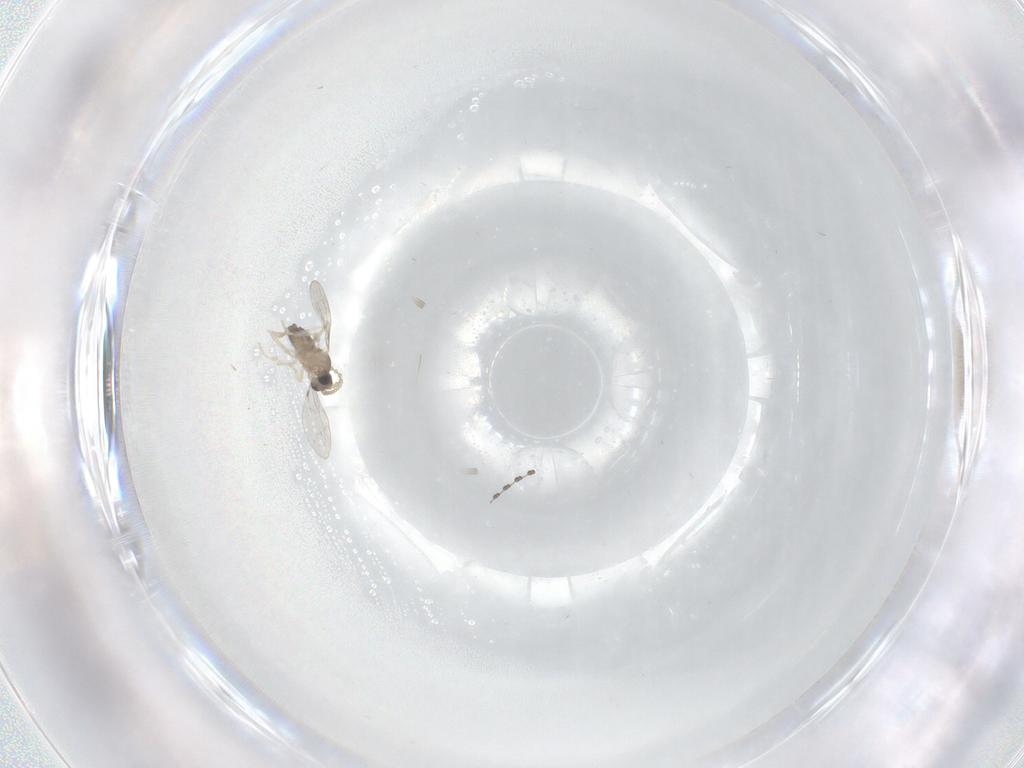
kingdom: Animalia
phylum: Arthropoda
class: Insecta
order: Diptera
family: Cecidomyiidae
